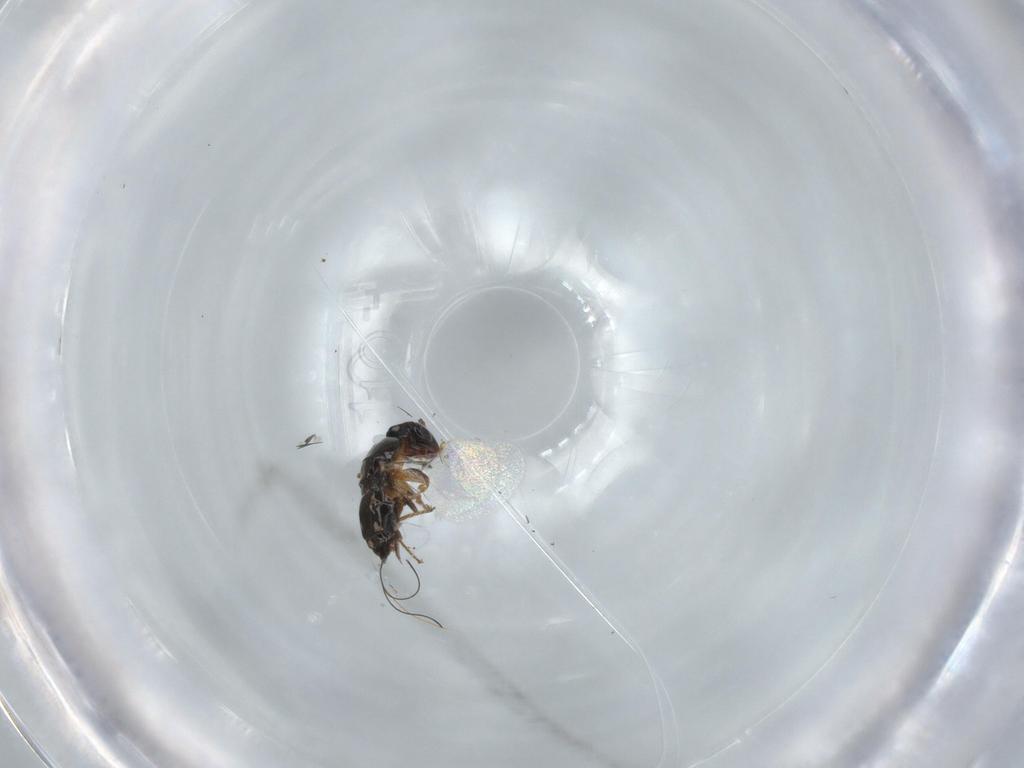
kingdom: Animalia
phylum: Arthropoda
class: Insecta
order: Hymenoptera
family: Agaonidae
